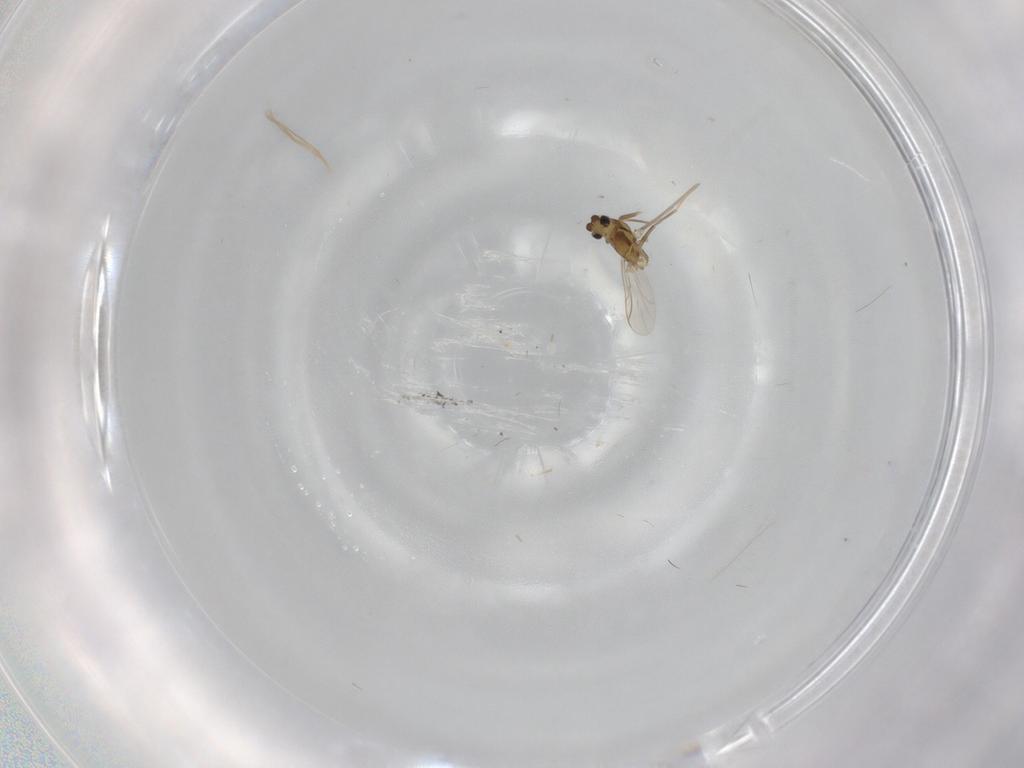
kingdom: Animalia
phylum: Arthropoda
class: Insecta
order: Diptera
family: Chironomidae
